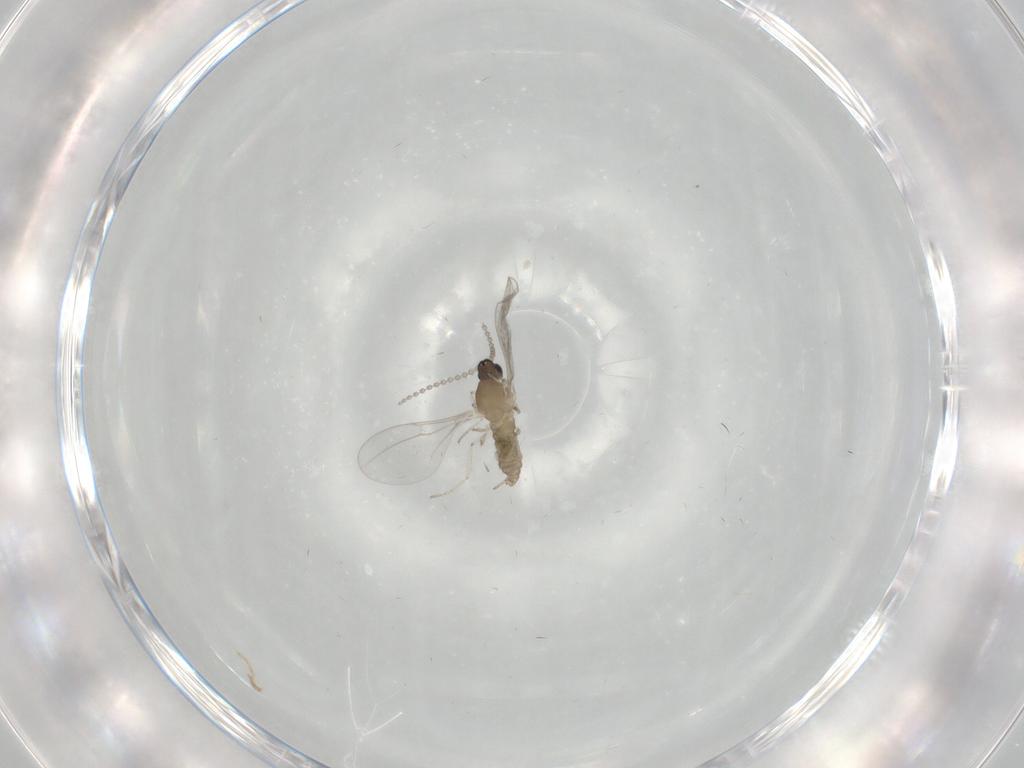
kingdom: Animalia
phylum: Arthropoda
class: Insecta
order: Diptera
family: Cecidomyiidae
